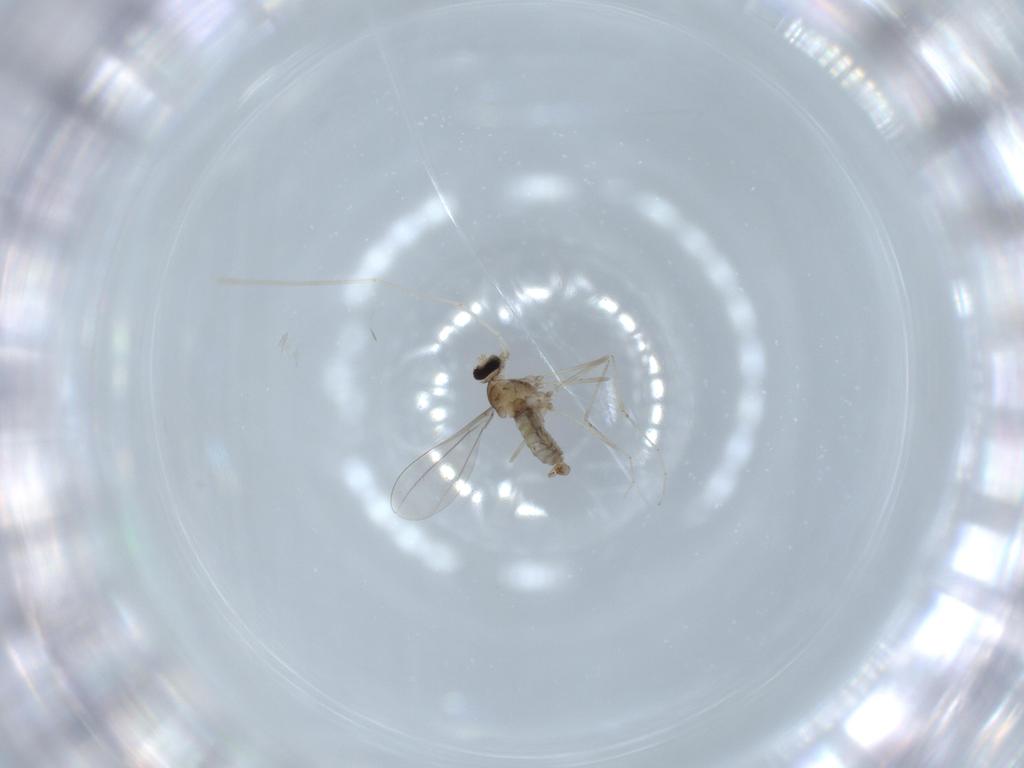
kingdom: Animalia
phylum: Arthropoda
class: Insecta
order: Diptera
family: Cecidomyiidae
